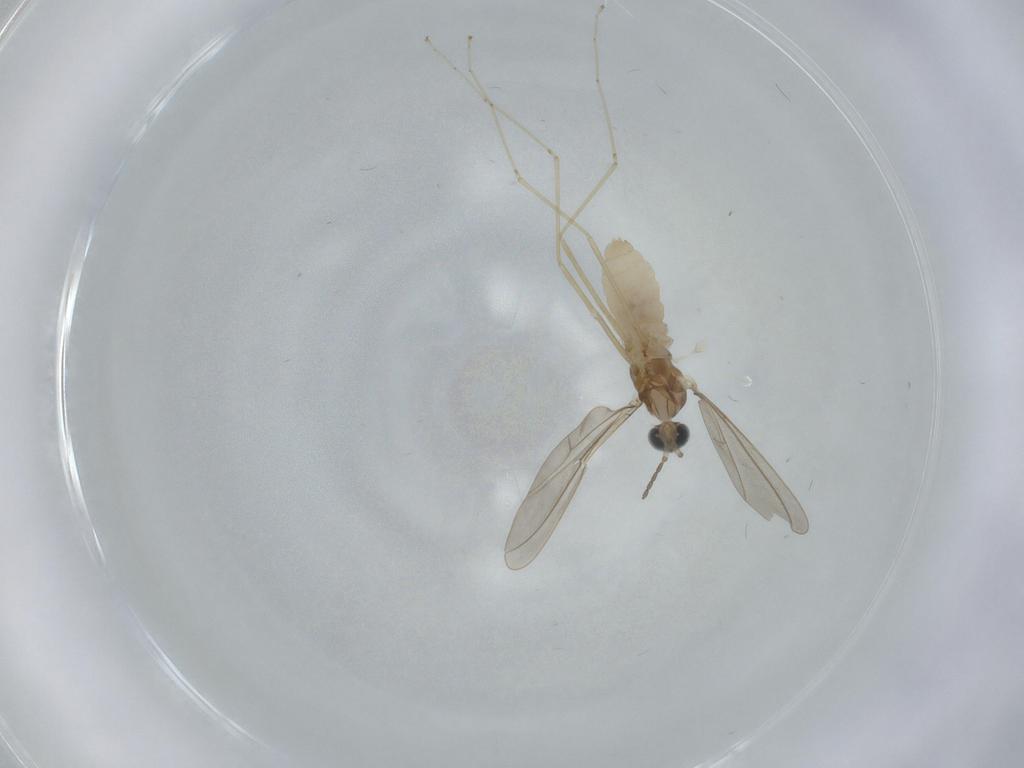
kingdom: Animalia
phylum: Arthropoda
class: Insecta
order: Diptera
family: Cecidomyiidae
